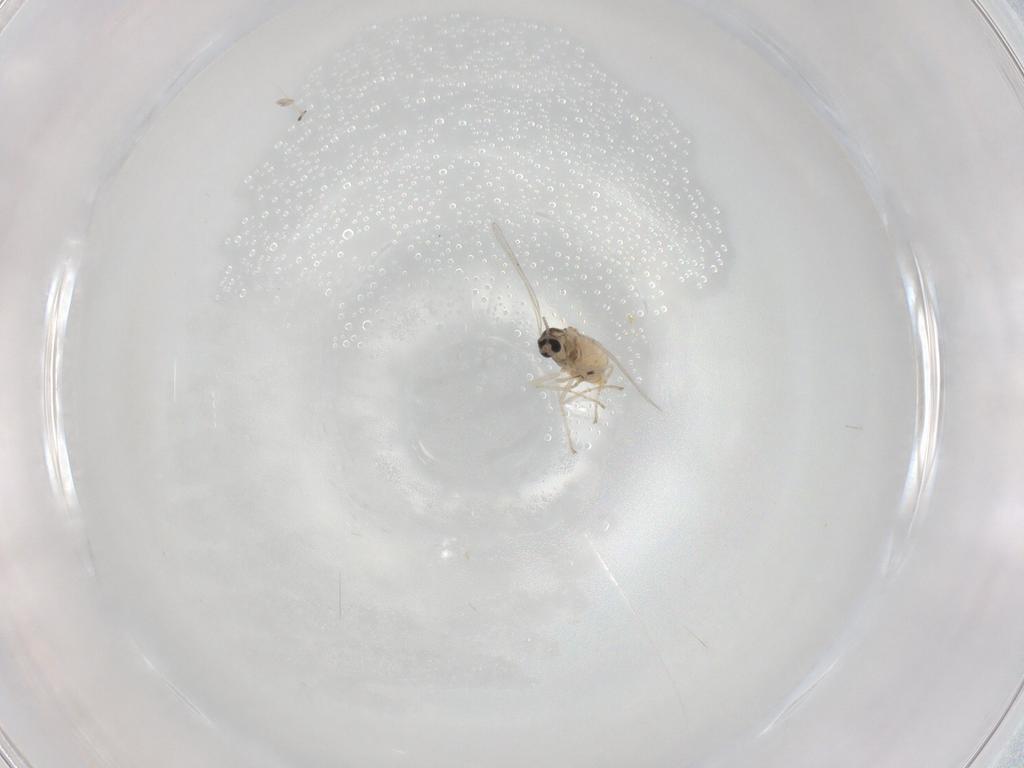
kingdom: Animalia
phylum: Arthropoda
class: Insecta
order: Diptera
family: Cecidomyiidae
